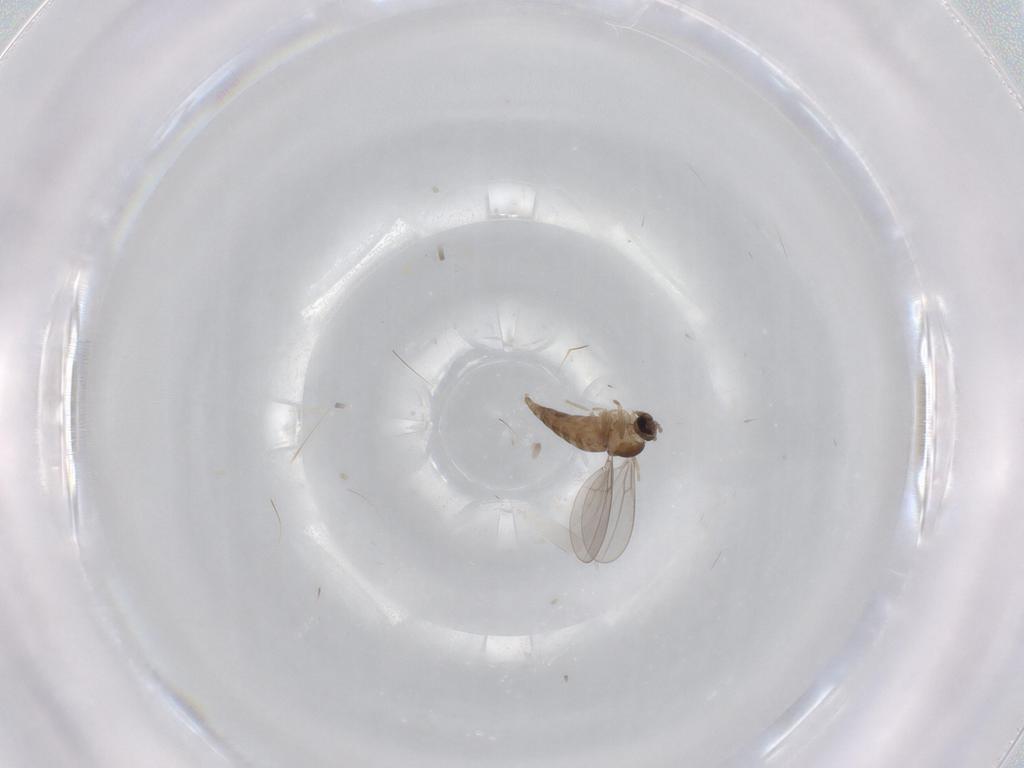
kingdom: Animalia
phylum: Arthropoda
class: Insecta
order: Diptera
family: Cecidomyiidae
